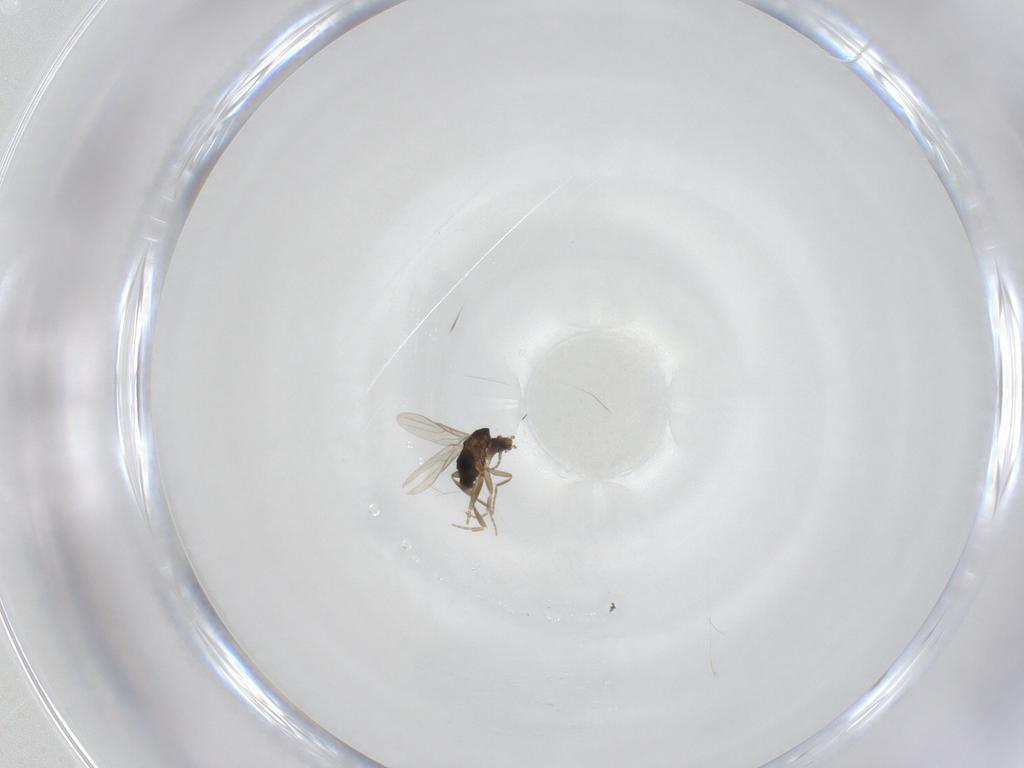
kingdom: Animalia
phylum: Arthropoda
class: Insecta
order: Diptera
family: Phoridae
